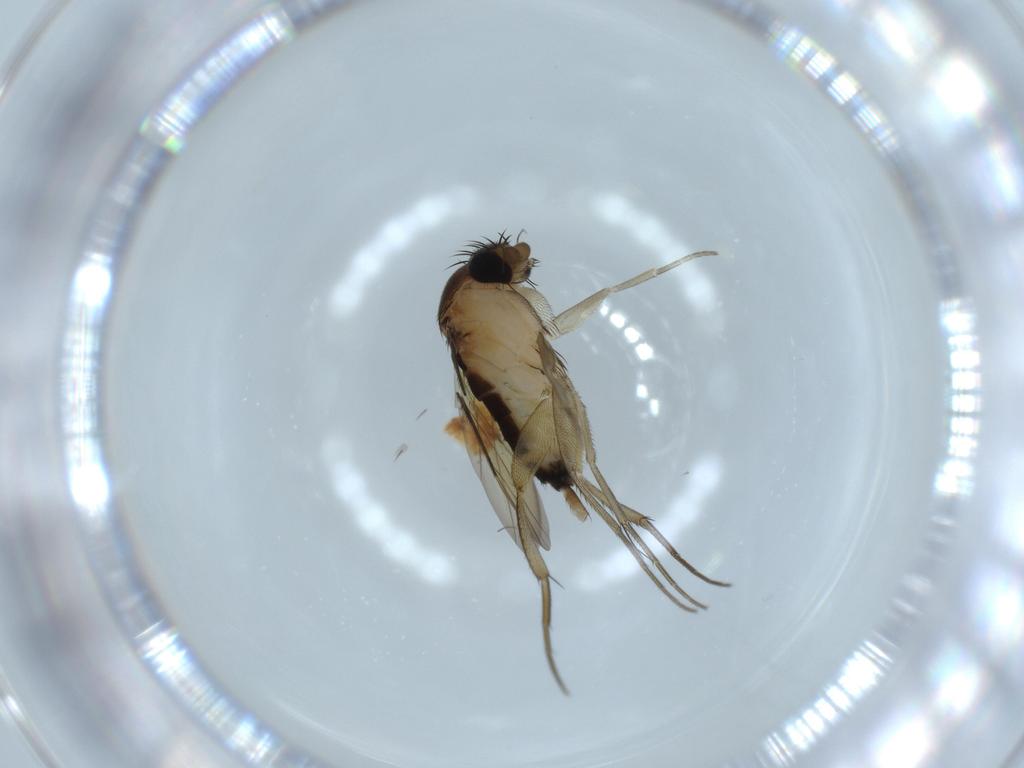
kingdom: Animalia
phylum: Arthropoda
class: Insecta
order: Diptera
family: Phoridae
